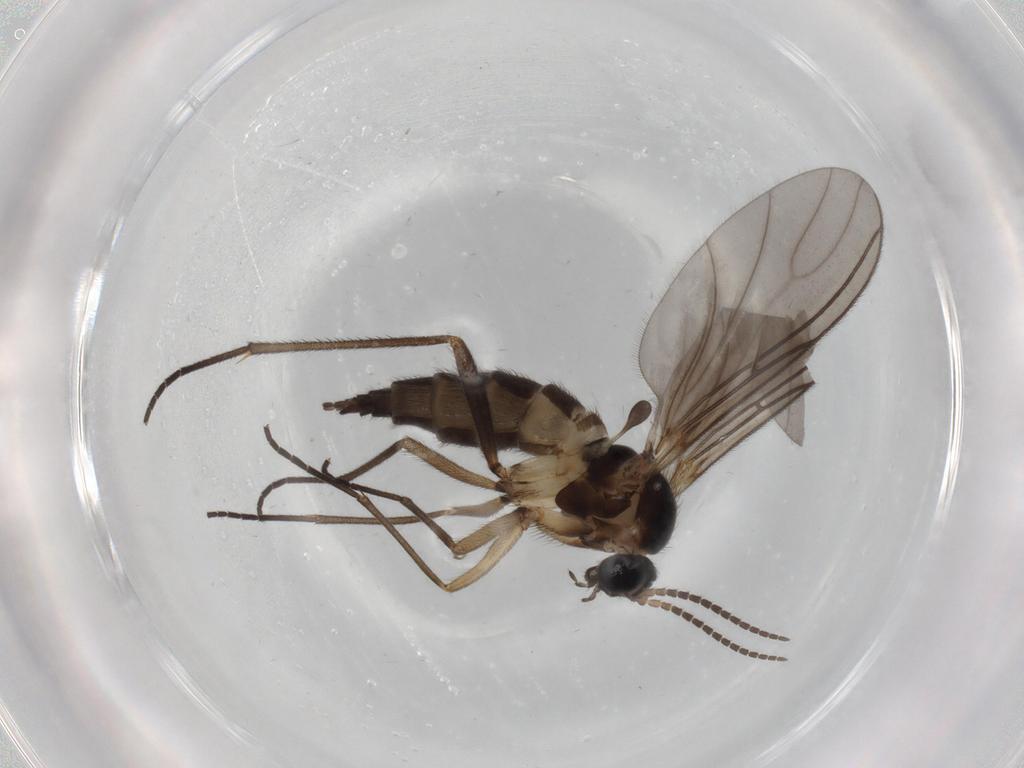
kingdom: Animalia
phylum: Arthropoda
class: Insecta
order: Diptera
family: Sciaridae
